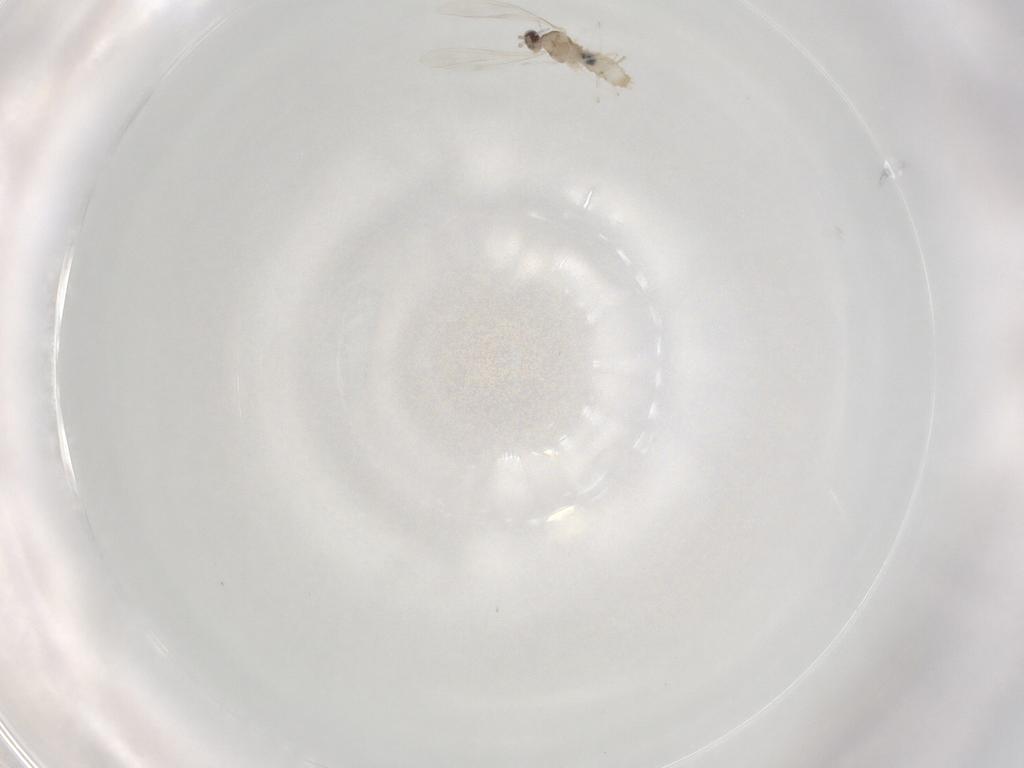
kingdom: Animalia
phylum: Arthropoda
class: Insecta
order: Diptera
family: Cecidomyiidae
